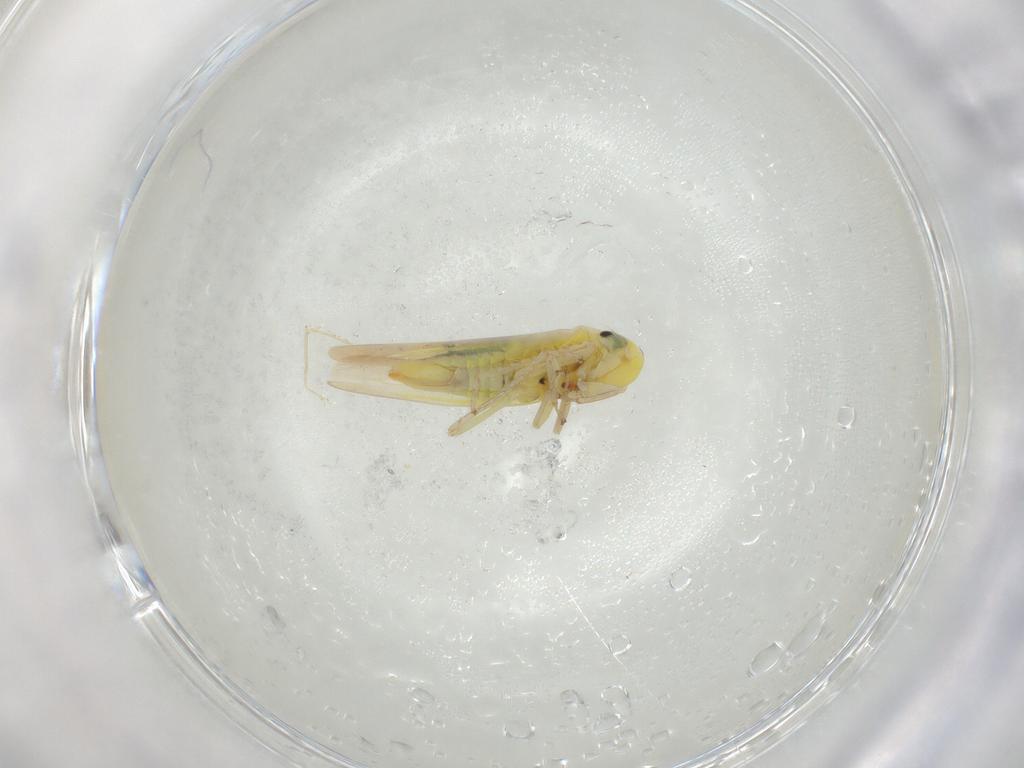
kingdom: Animalia
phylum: Arthropoda
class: Insecta
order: Hemiptera
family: Cicadellidae
